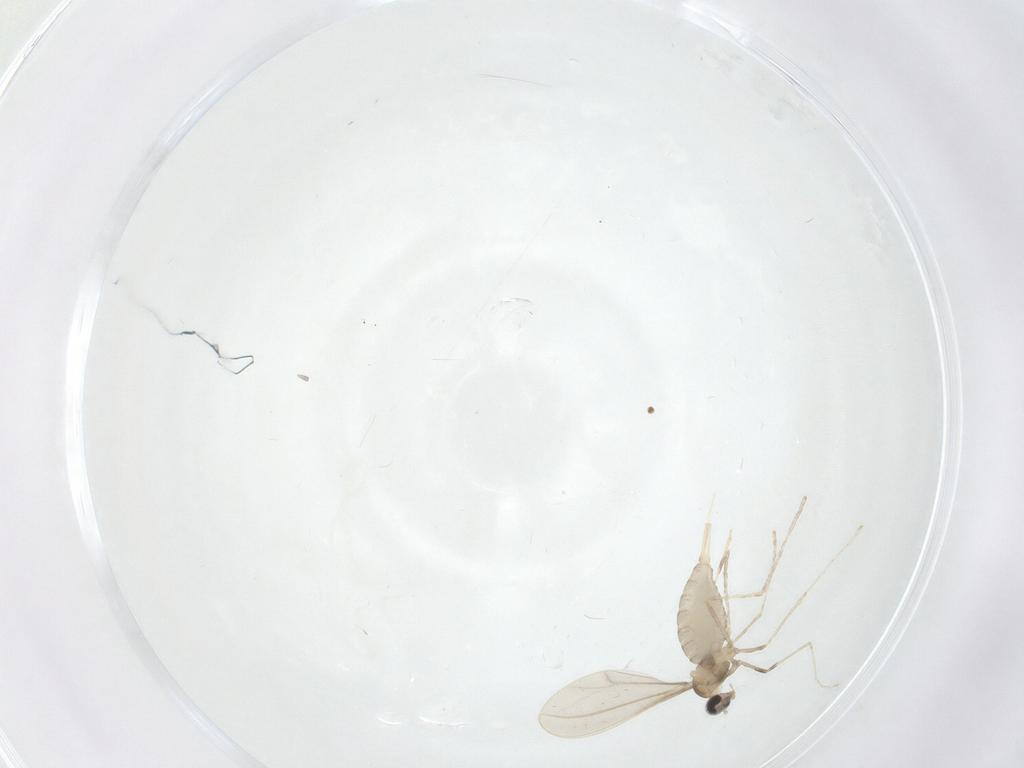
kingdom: Animalia
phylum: Arthropoda
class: Insecta
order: Diptera
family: Cecidomyiidae
